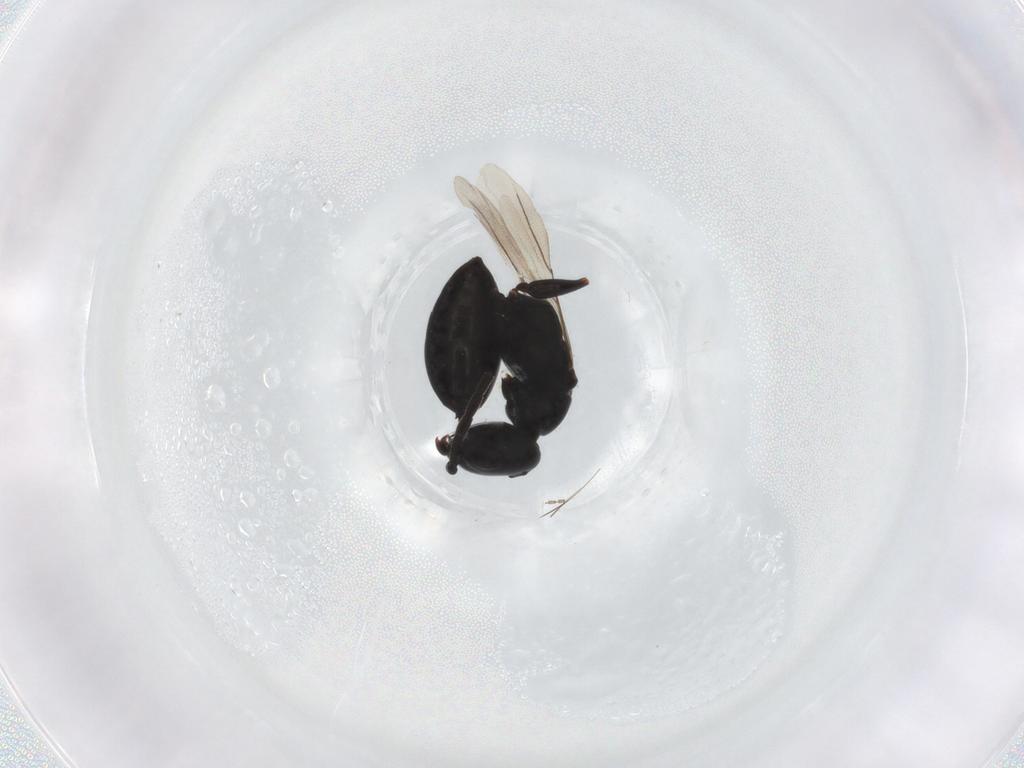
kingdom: Animalia
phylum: Arthropoda
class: Insecta
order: Hymenoptera
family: Bethylidae
